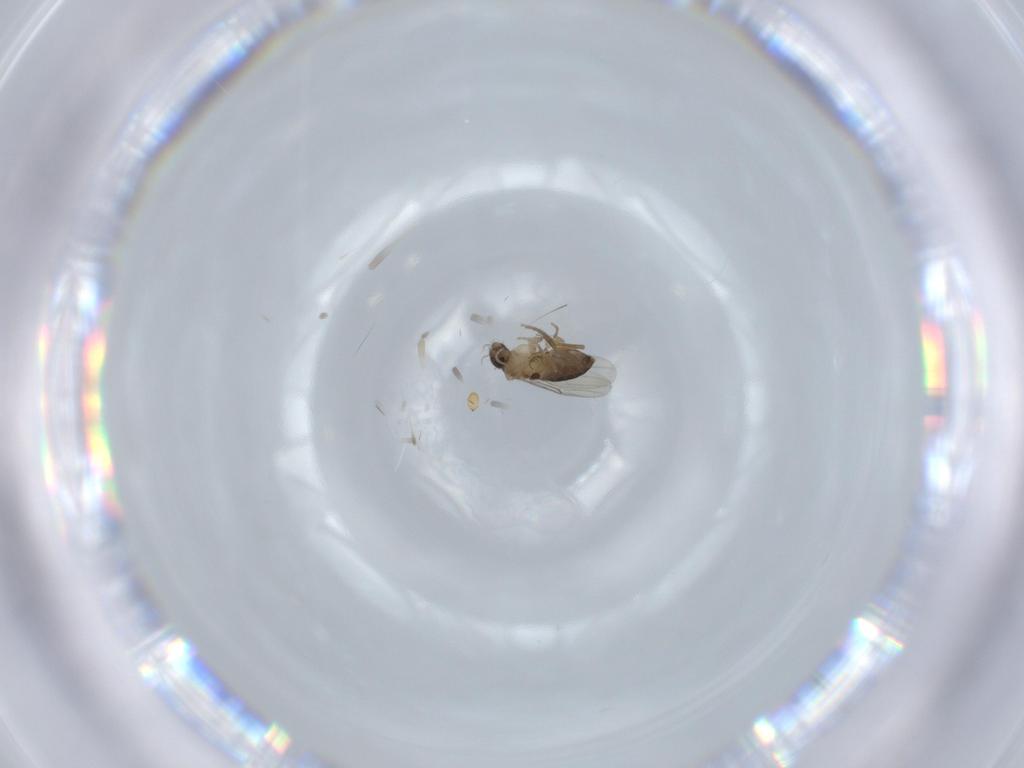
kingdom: Animalia
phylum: Arthropoda
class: Insecta
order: Diptera
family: Phoridae
